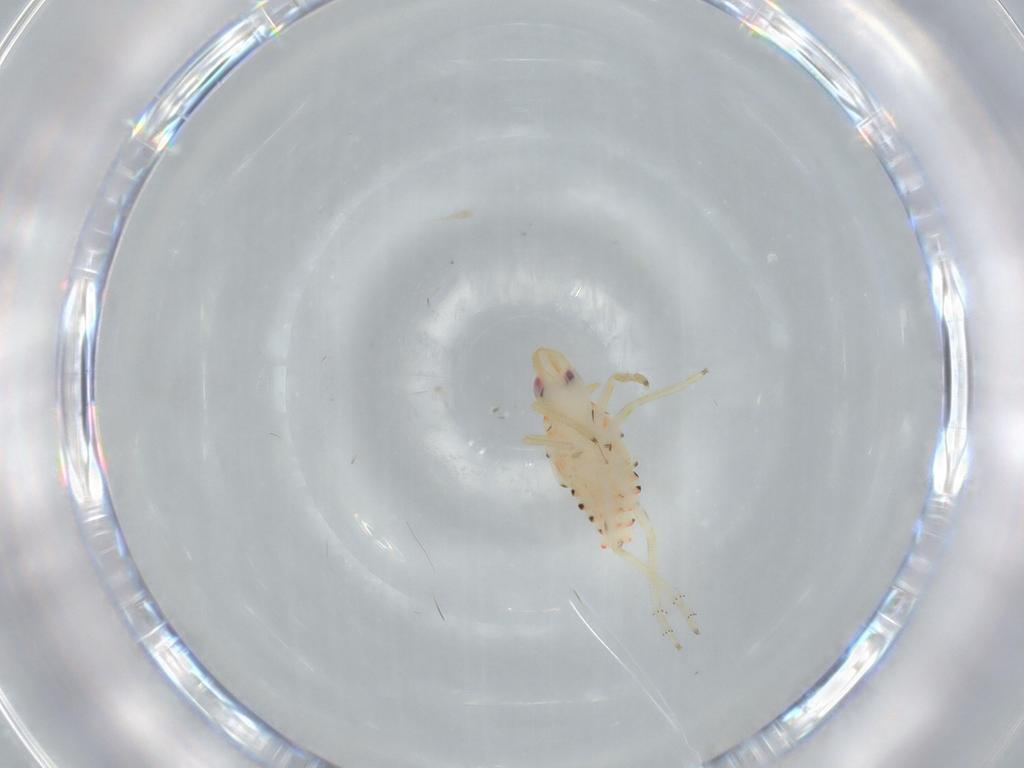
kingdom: Animalia
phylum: Arthropoda
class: Insecta
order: Hemiptera
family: Tropiduchidae
